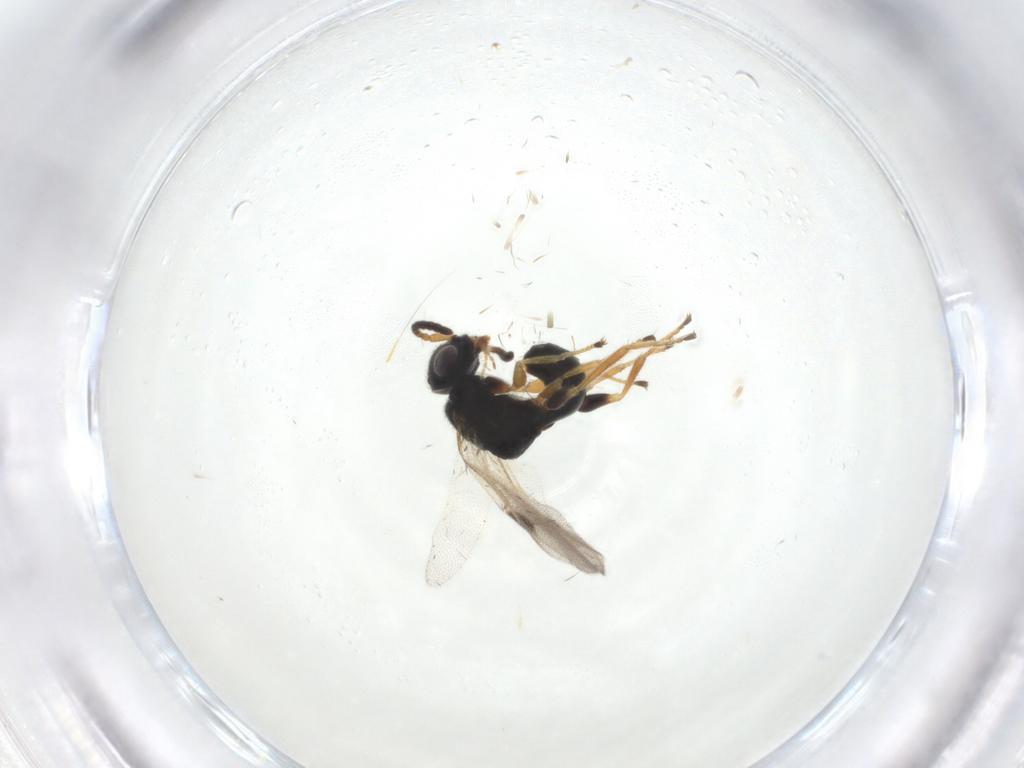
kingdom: Animalia
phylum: Arthropoda
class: Insecta
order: Hymenoptera
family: Dryinidae
